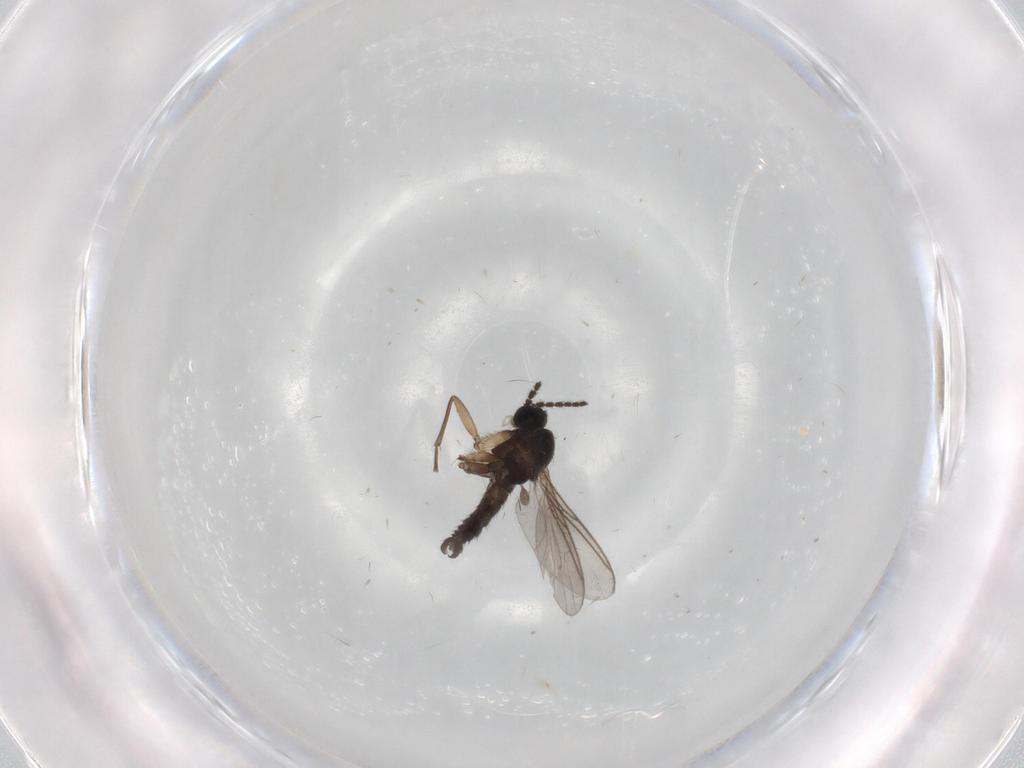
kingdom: Animalia
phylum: Arthropoda
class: Insecta
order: Diptera
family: Sciaridae
